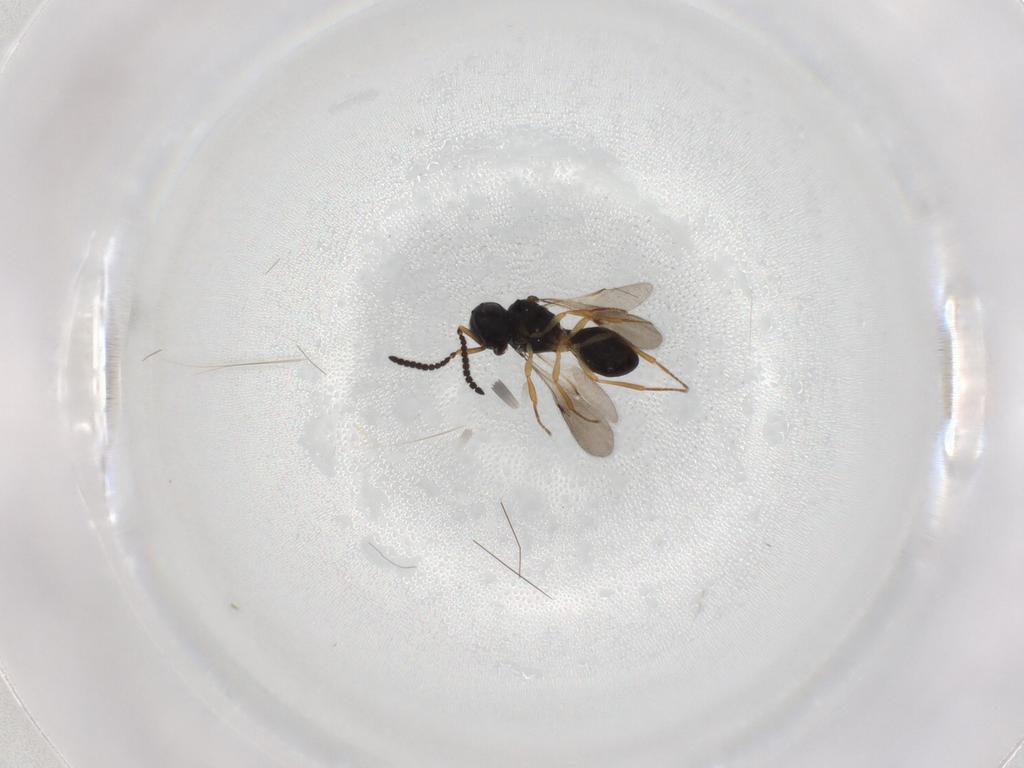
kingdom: Animalia
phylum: Arthropoda
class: Insecta
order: Hymenoptera
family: Scelionidae
